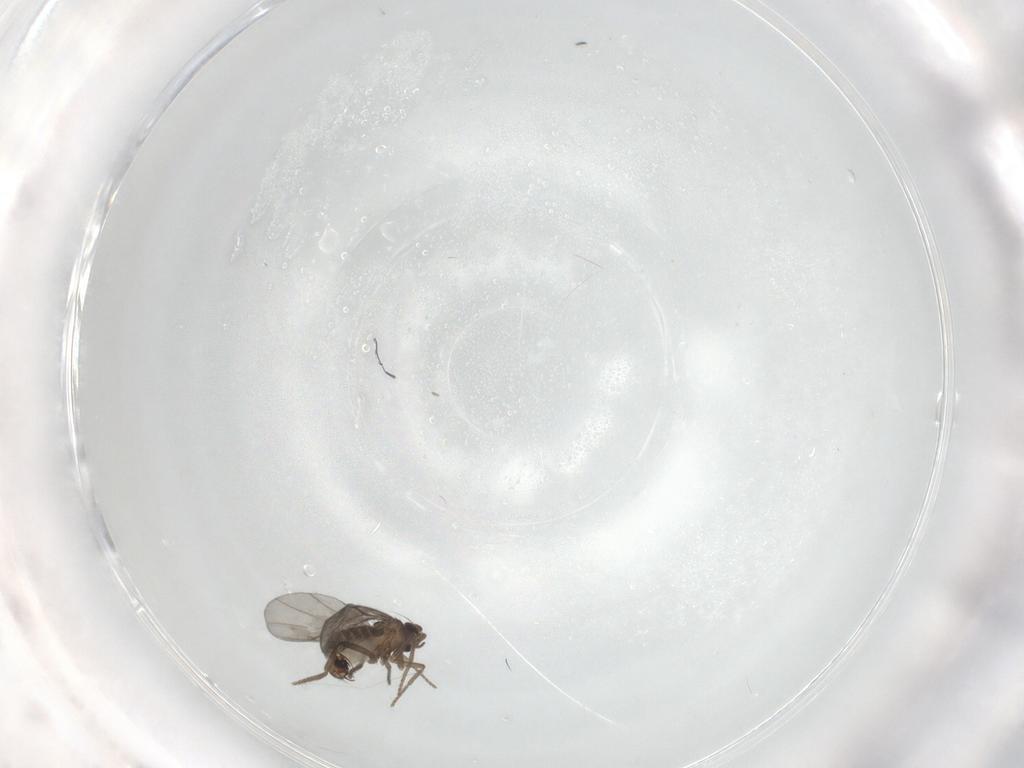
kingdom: Animalia
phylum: Arthropoda
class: Insecta
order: Diptera
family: Phoridae
